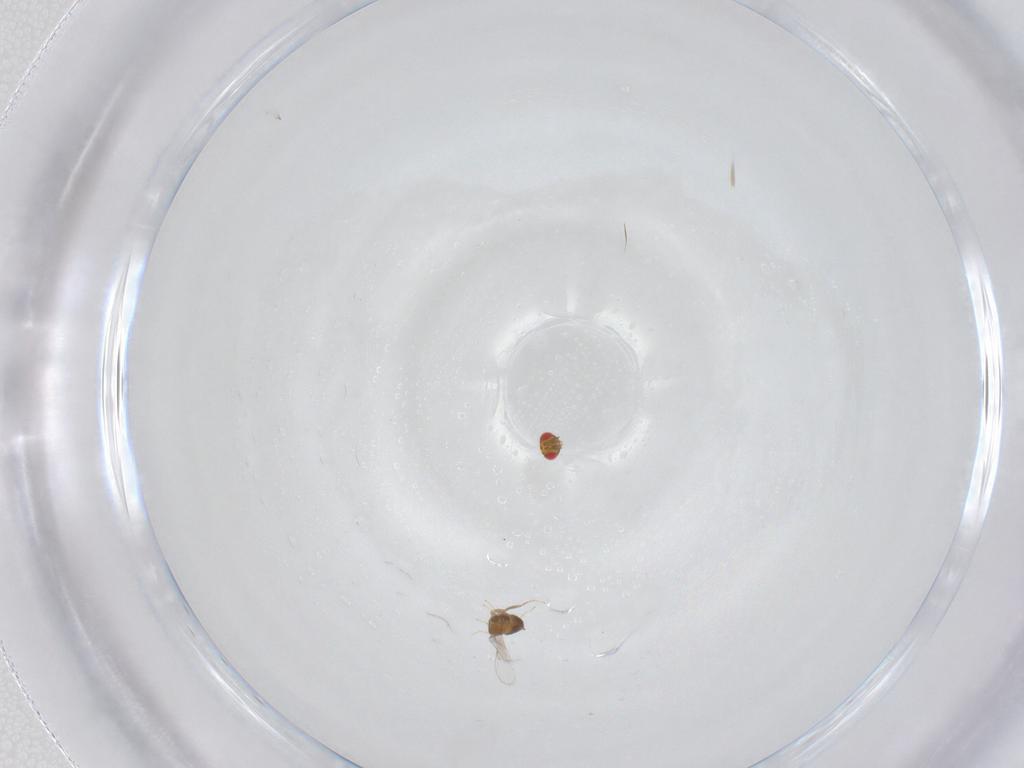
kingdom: Animalia
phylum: Arthropoda
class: Insecta
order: Hymenoptera
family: Trichogrammatidae
